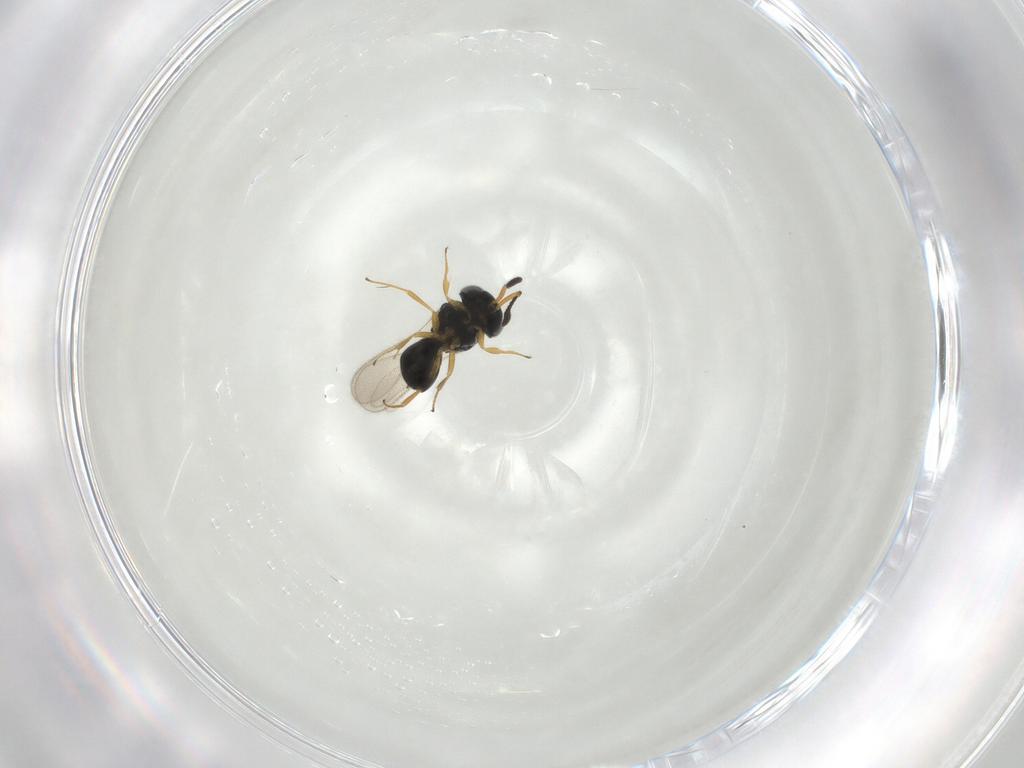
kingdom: Animalia
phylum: Arthropoda
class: Insecta
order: Hymenoptera
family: Scelionidae
